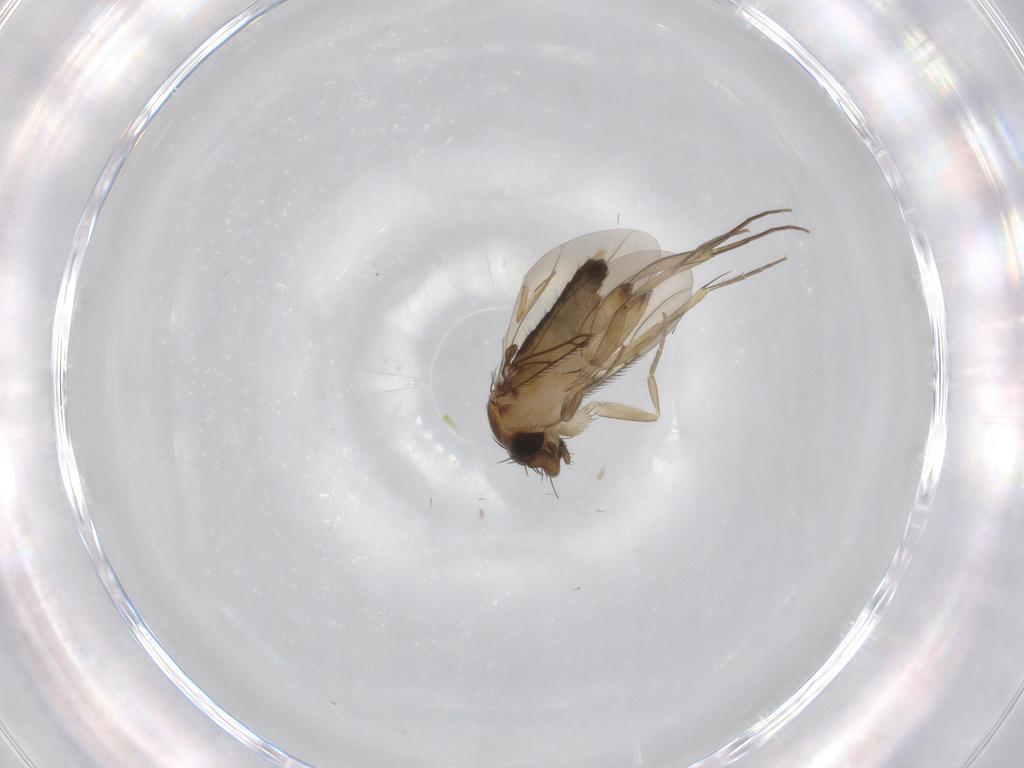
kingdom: Animalia
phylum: Arthropoda
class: Insecta
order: Diptera
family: Phoridae
